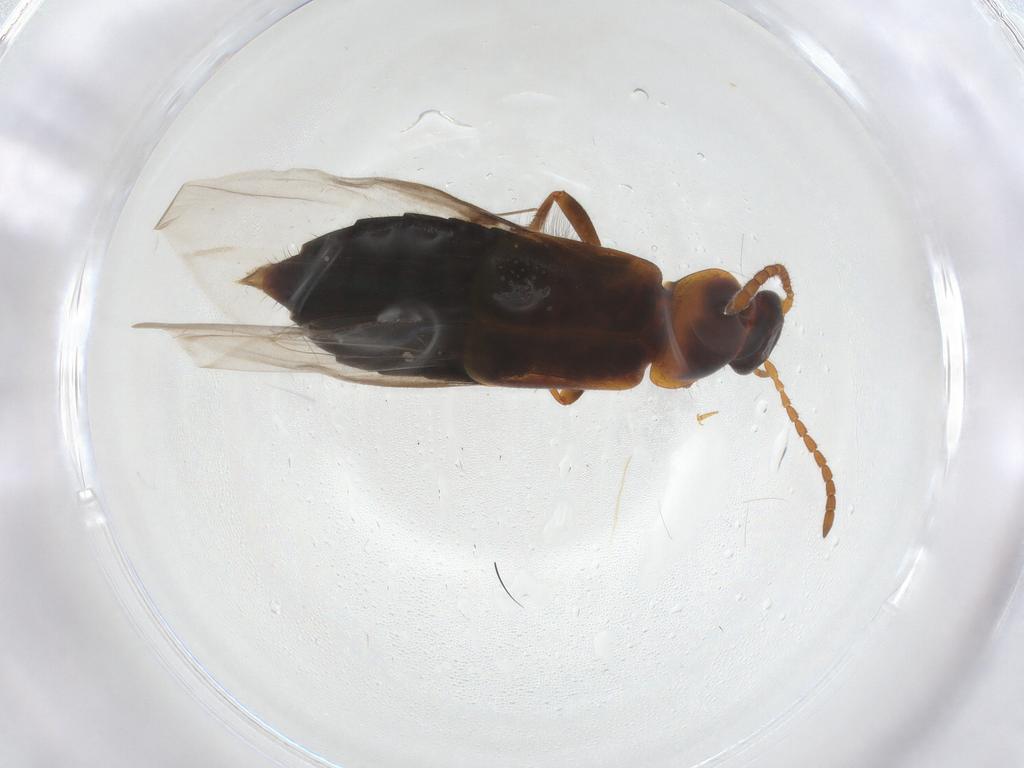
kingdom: Animalia
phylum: Arthropoda
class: Insecta
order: Coleoptera
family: Staphylinidae
